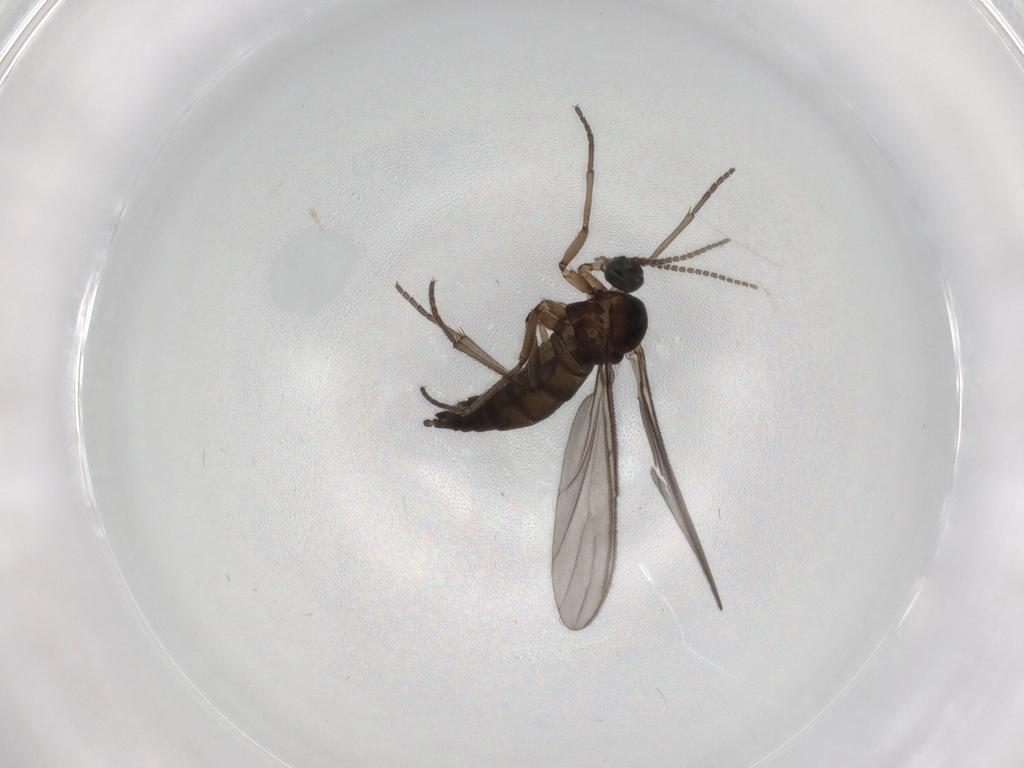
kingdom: Animalia
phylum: Arthropoda
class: Insecta
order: Diptera
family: Sciaridae
